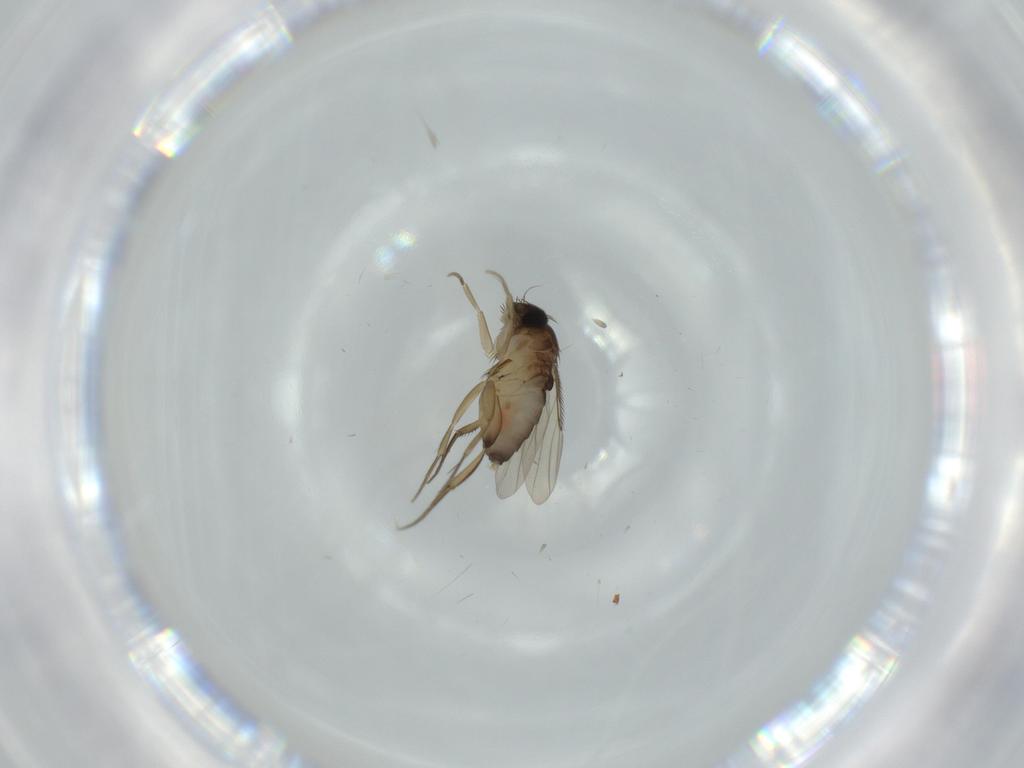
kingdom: Animalia
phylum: Arthropoda
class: Insecta
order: Diptera
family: Phoridae
